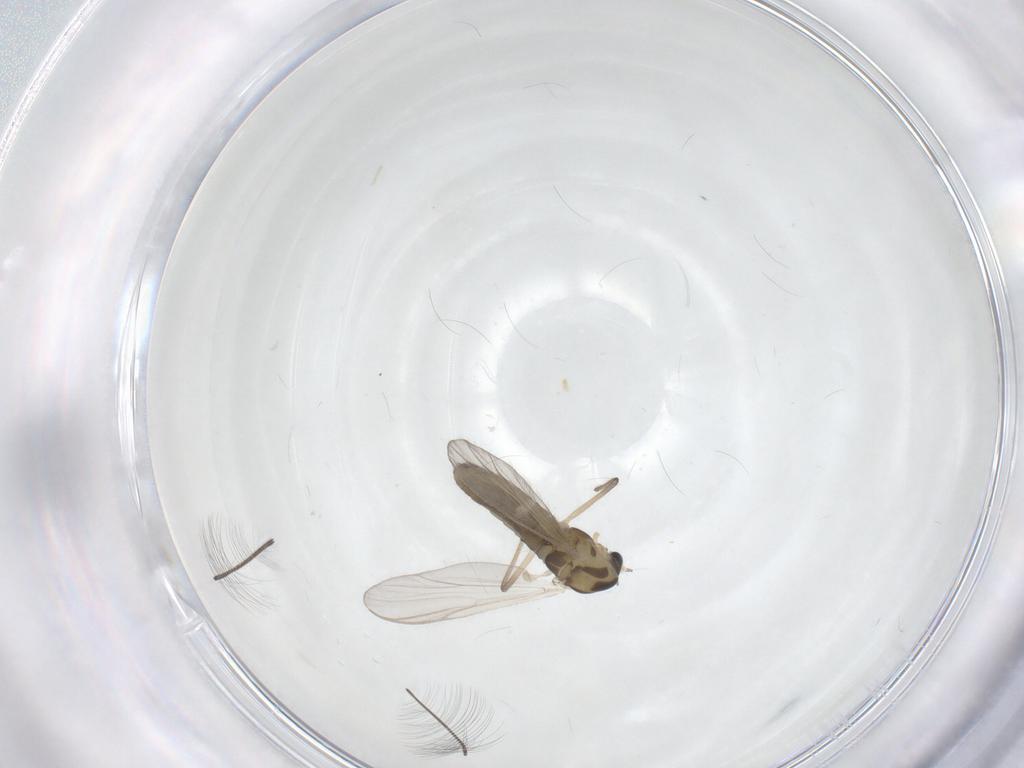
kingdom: Animalia
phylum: Arthropoda
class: Insecta
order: Diptera
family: Chironomidae
